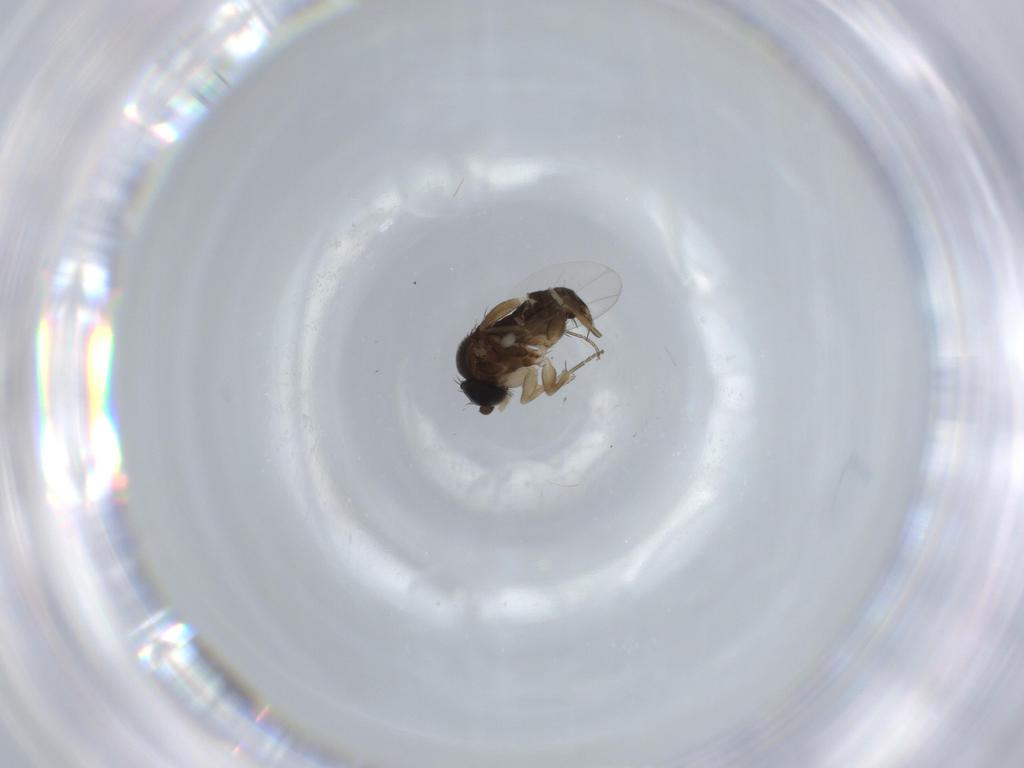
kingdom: Animalia
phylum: Arthropoda
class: Insecta
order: Diptera
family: Phoridae
